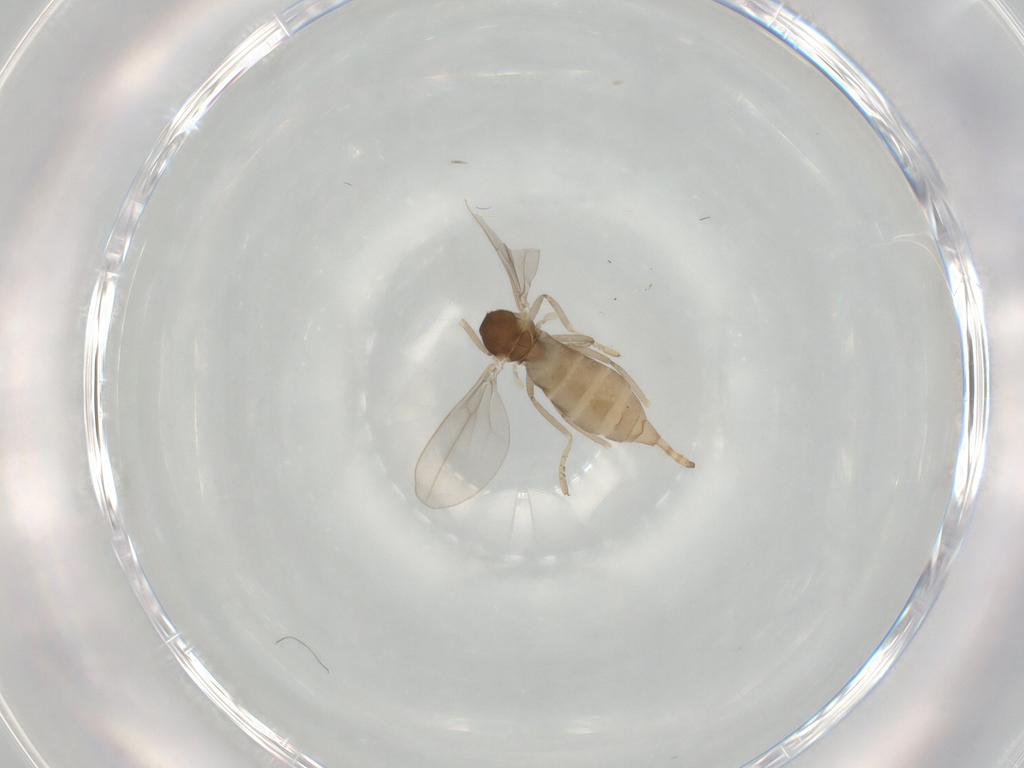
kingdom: Animalia
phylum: Arthropoda
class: Insecta
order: Diptera
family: Cecidomyiidae
